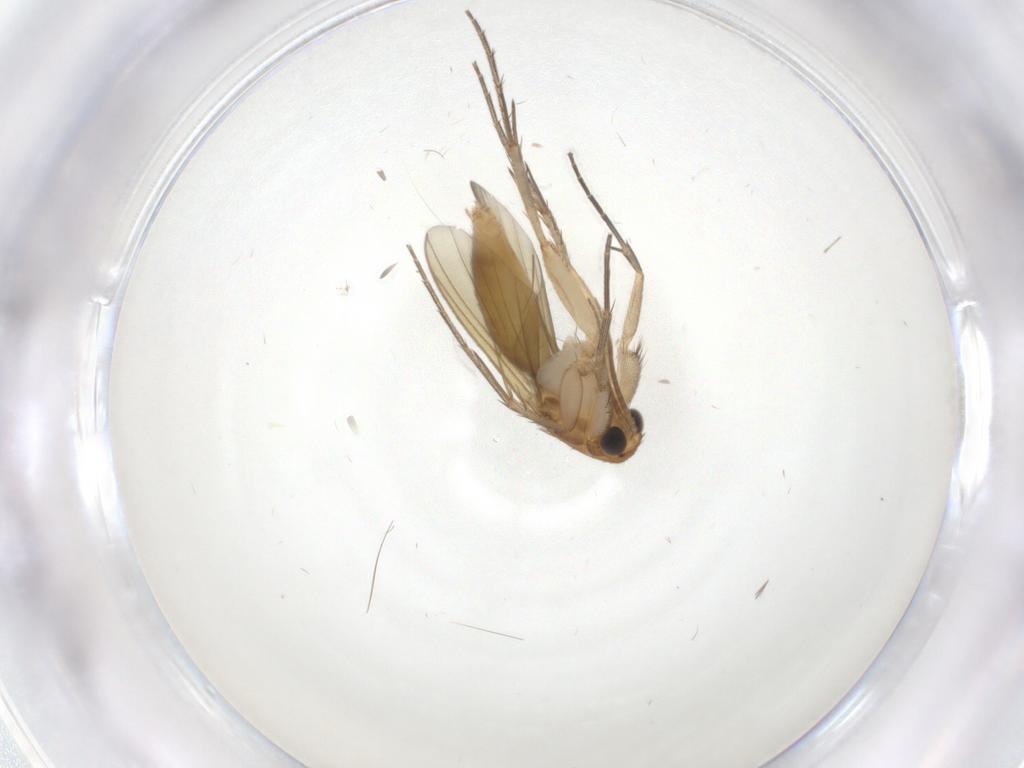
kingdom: Animalia
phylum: Arthropoda
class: Insecta
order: Diptera
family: Mycetophilidae
